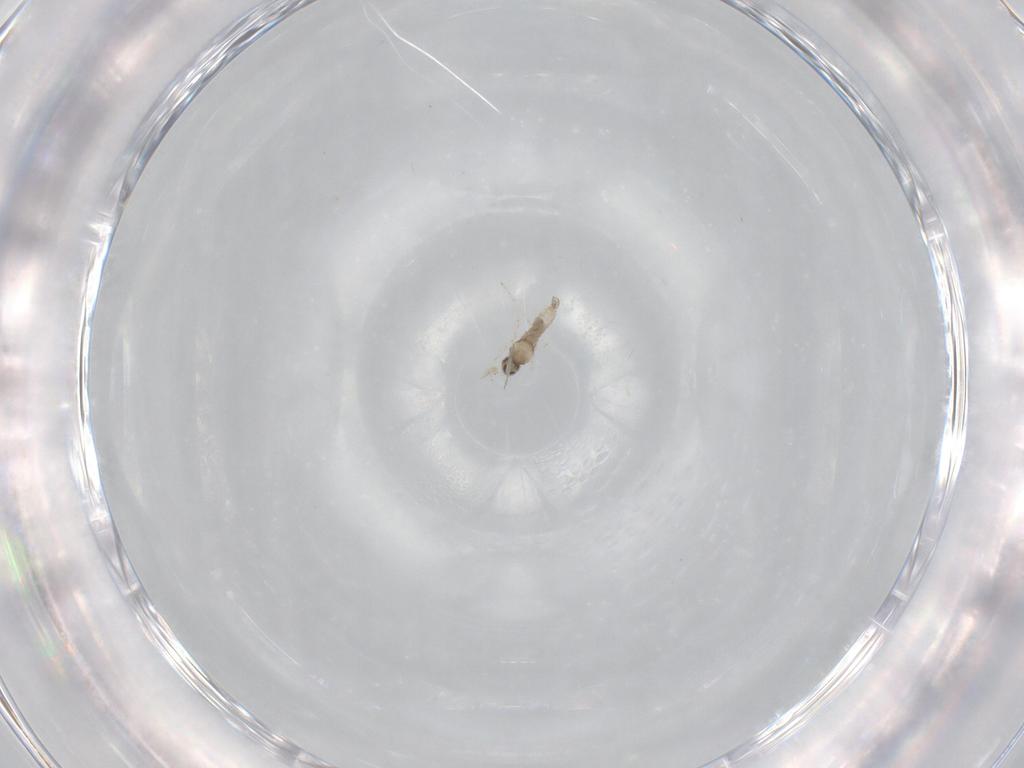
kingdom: Animalia
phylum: Arthropoda
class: Insecta
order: Diptera
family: Cecidomyiidae
